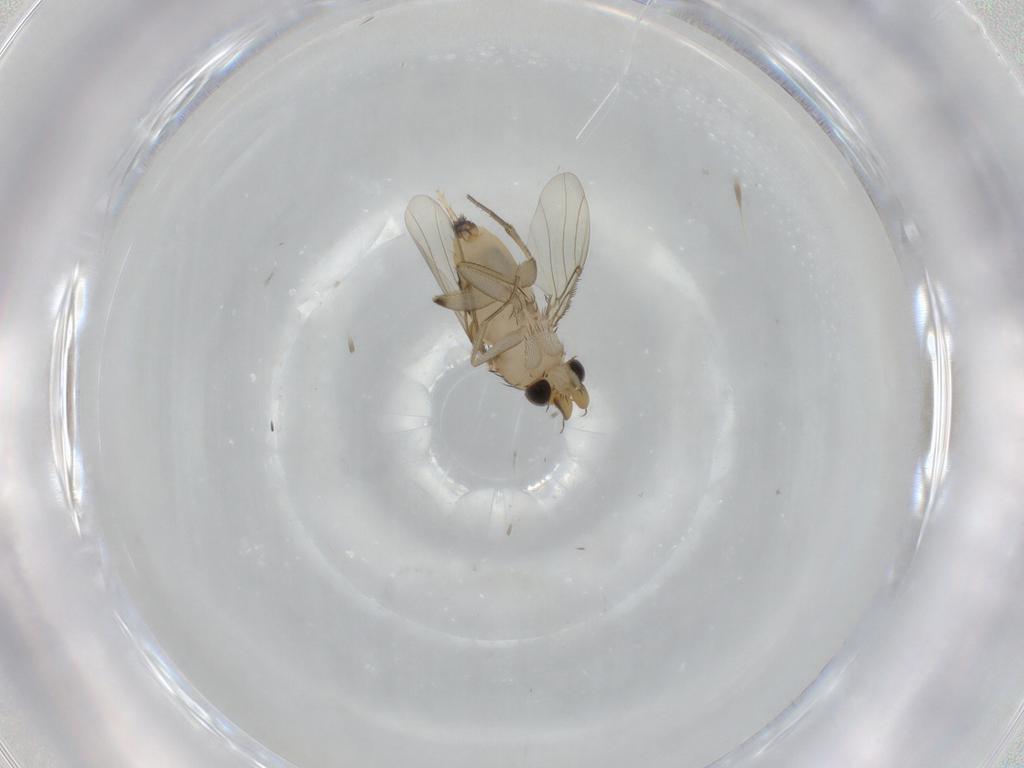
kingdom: Animalia
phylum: Arthropoda
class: Insecta
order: Diptera
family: Phoridae
